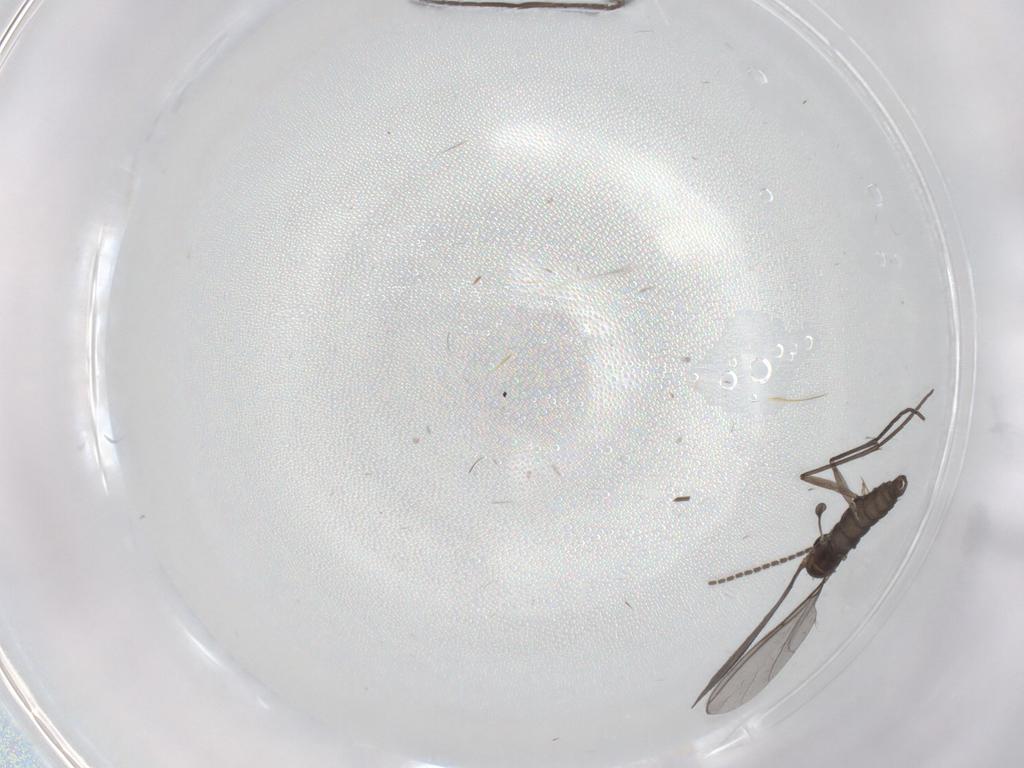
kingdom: Animalia
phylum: Arthropoda
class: Insecta
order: Diptera
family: Sciaridae
